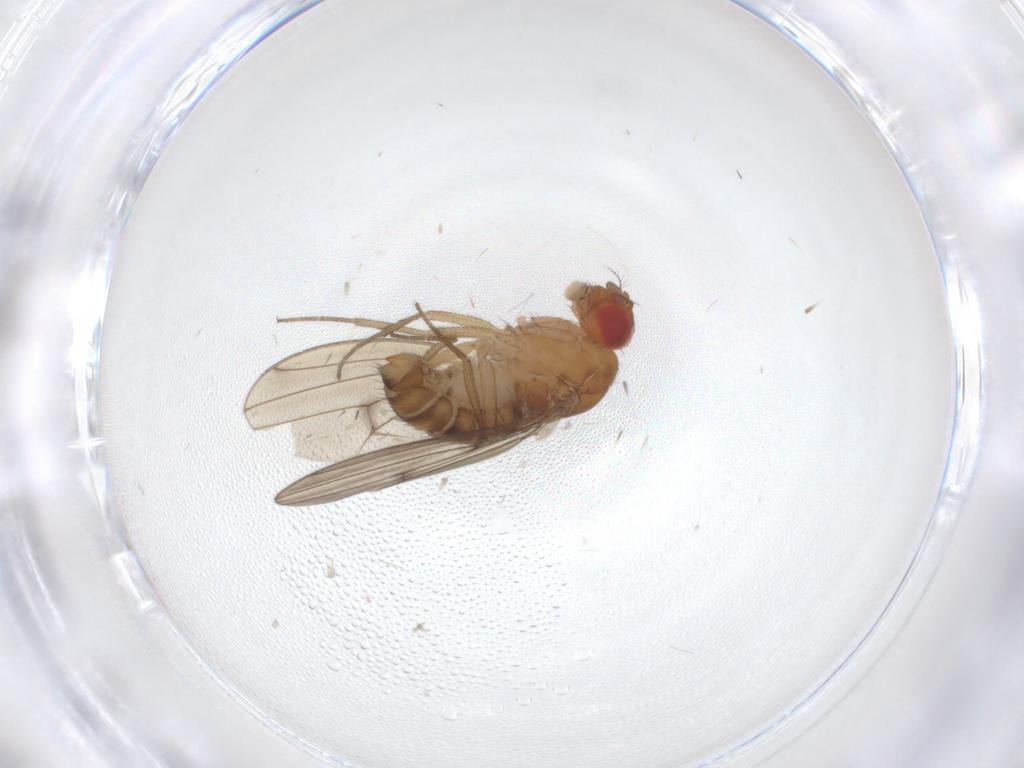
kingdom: Animalia
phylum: Arthropoda
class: Insecta
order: Diptera
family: Drosophilidae
